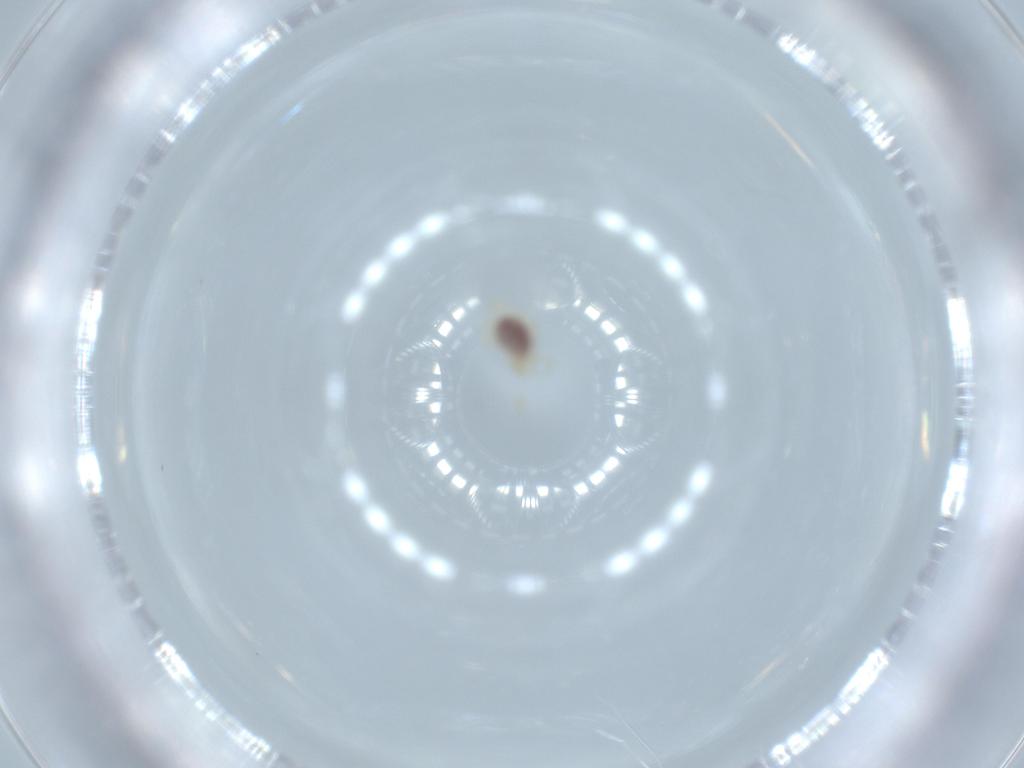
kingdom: Animalia
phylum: Arthropoda
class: Arachnida
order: Trombidiformes
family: Erythraeidae
